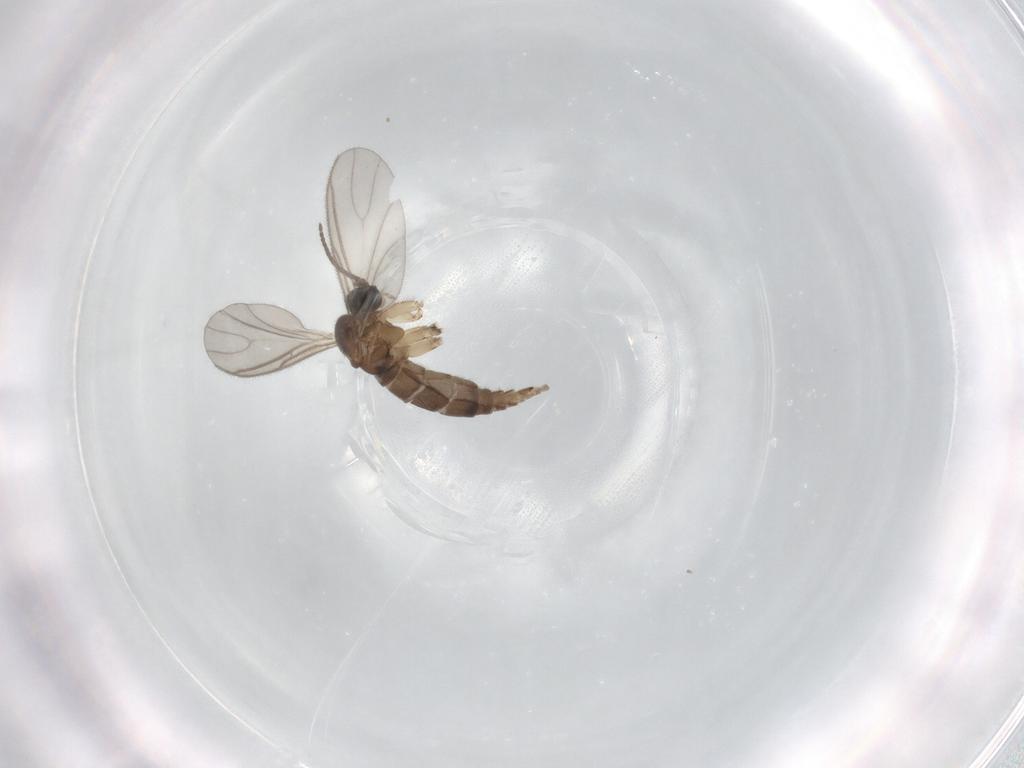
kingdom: Animalia
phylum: Arthropoda
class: Insecta
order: Diptera
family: Sciaridae
